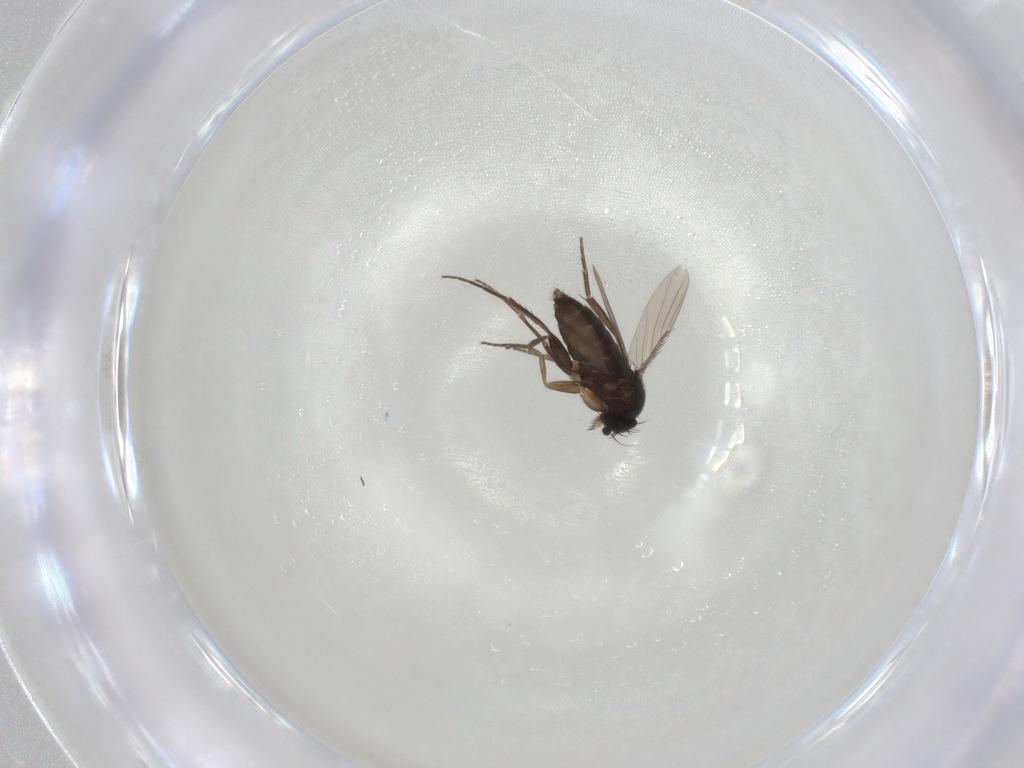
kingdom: Animalia
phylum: Arthropoda
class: Insecta
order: Diptera
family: Phoridae
